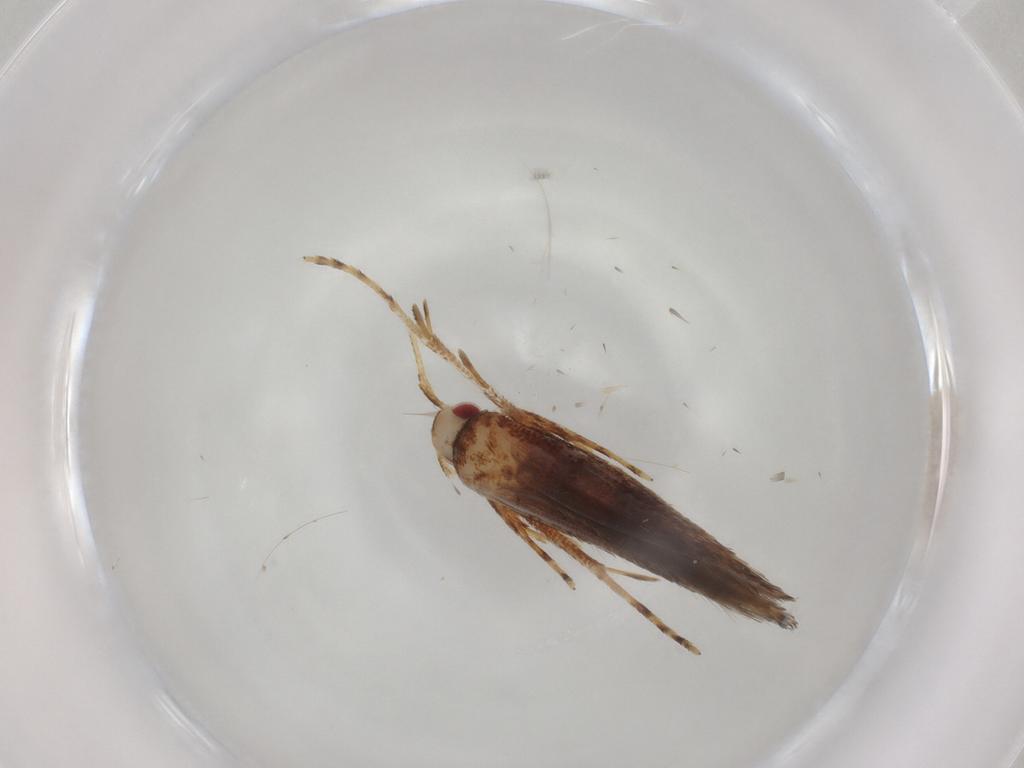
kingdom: Animalia
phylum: Arthropoda
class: Insecta
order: Lepidoptera
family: Cosmopterigidae
